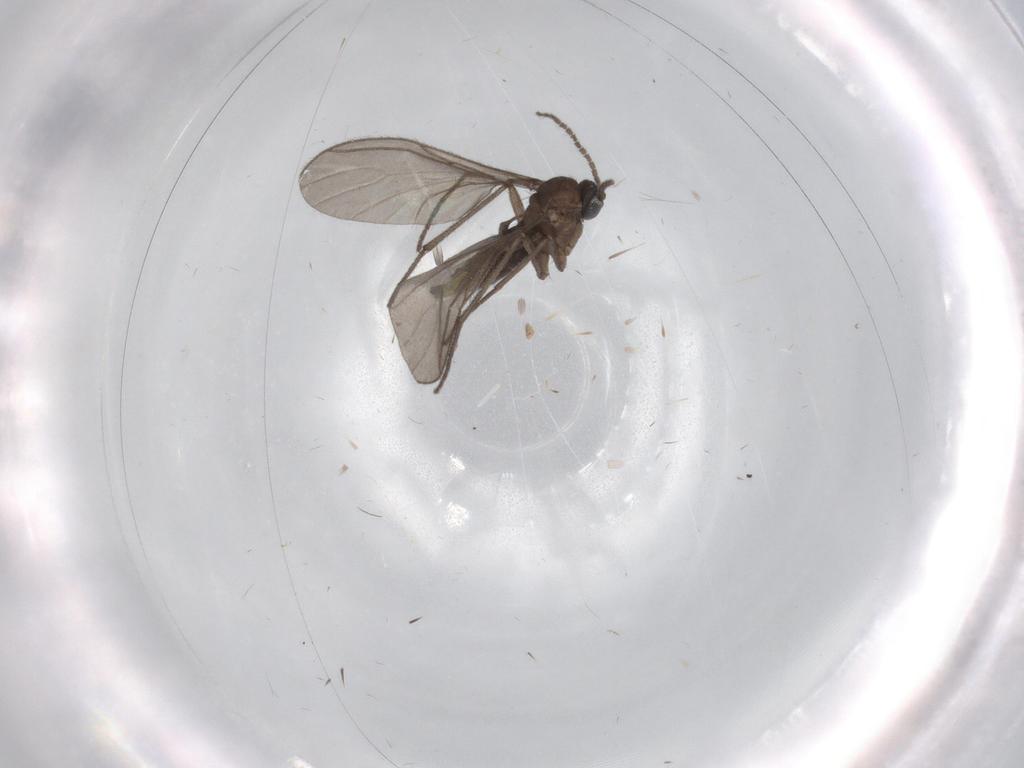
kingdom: Animalia
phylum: Arthropoda
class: Insecta
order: Diptera
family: Sciaridae
